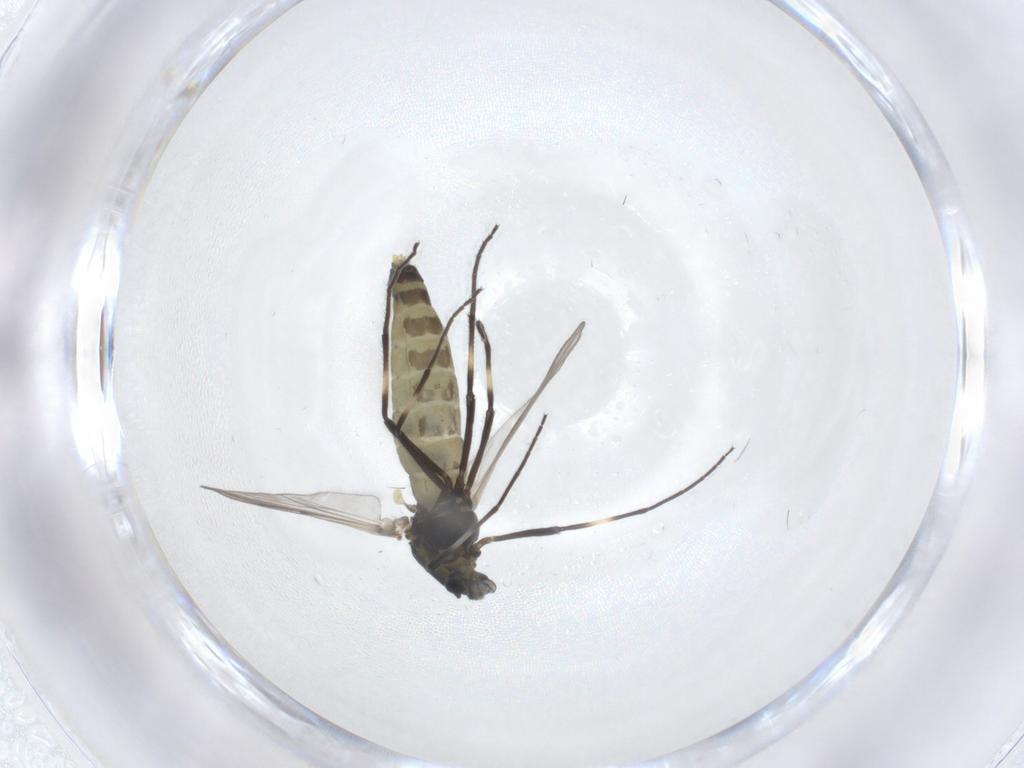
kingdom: Animalia
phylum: Arthropoda
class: Insecta
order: Diptera
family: Chironomidae
